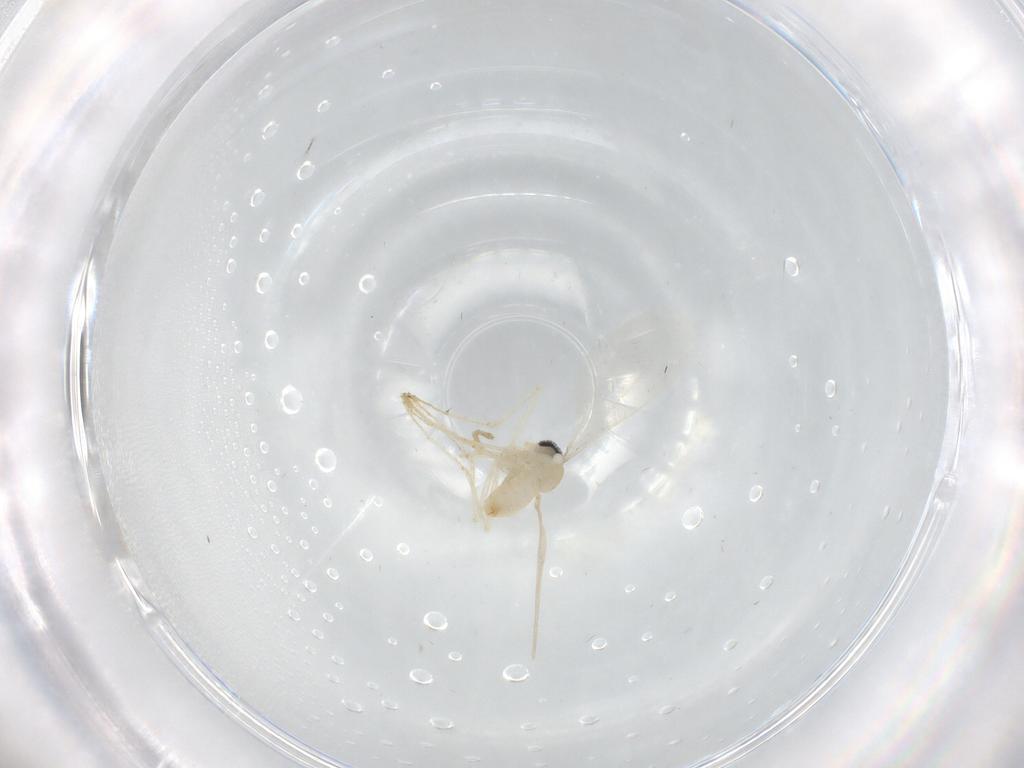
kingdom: Animalia
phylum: Arthropoda
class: Insecta
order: Diptera
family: Cecidomyiidae
